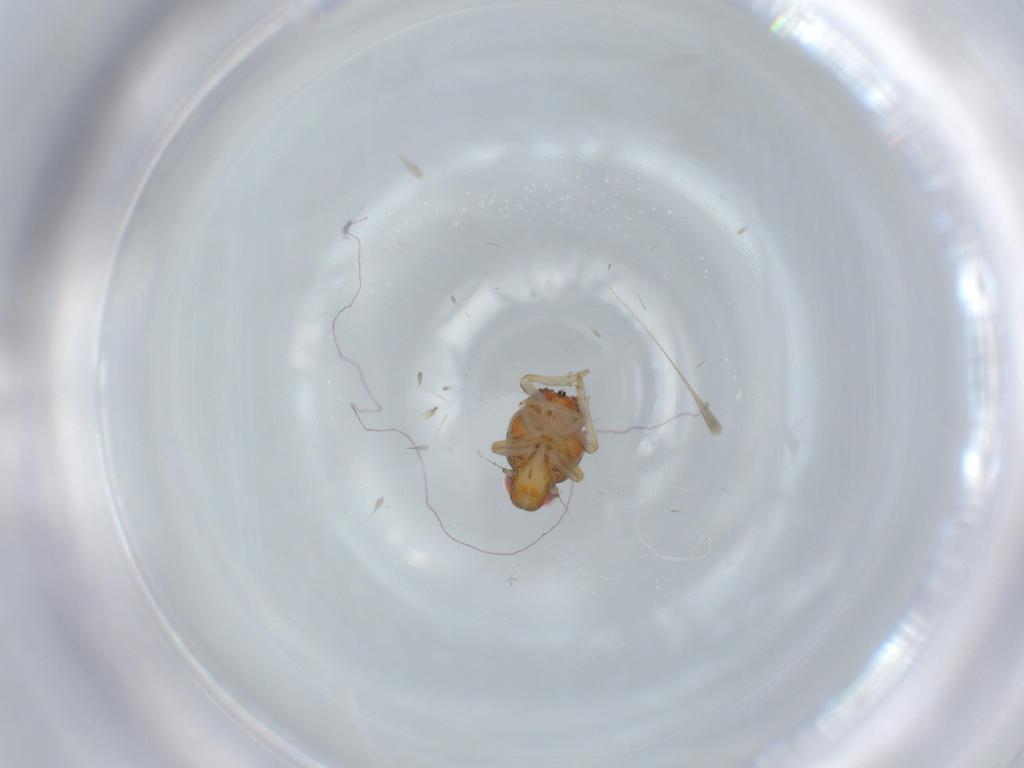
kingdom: Animalia
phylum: Arthropoda
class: Insecta
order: Hemiptera
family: Issidae
